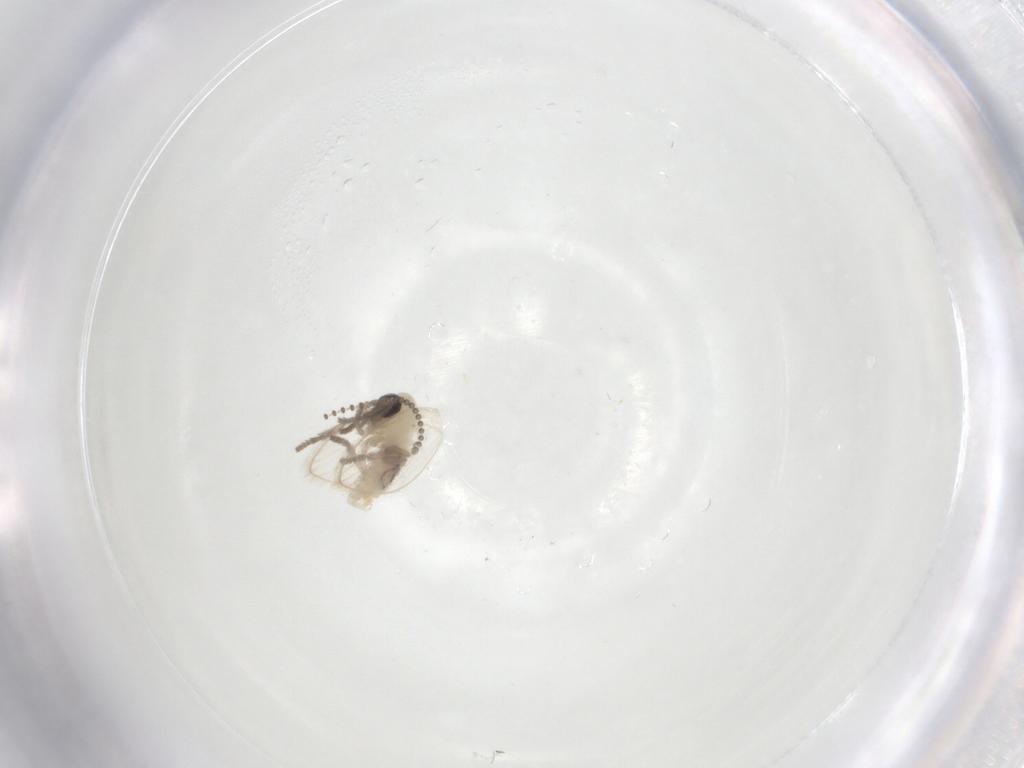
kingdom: Animalia
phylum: Arthropoda
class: Insecta
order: Diptera
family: Psychodidae
